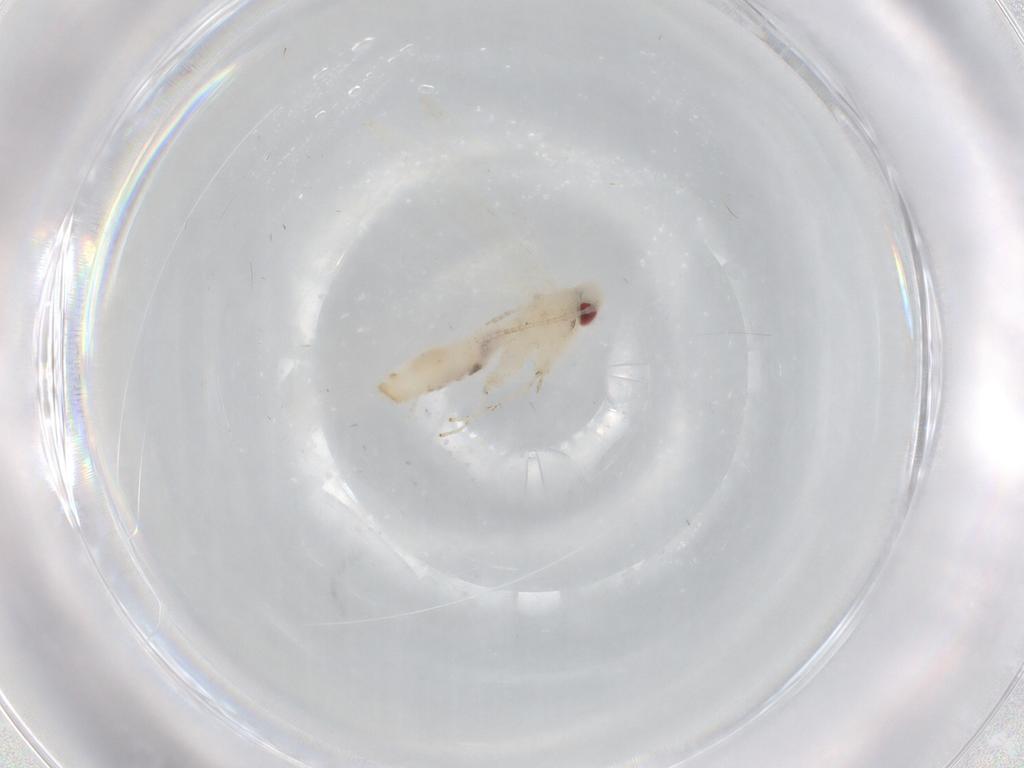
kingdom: Animalia
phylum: Arthropoda
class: Insecta
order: Lepidoptera
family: Gracillariidae
